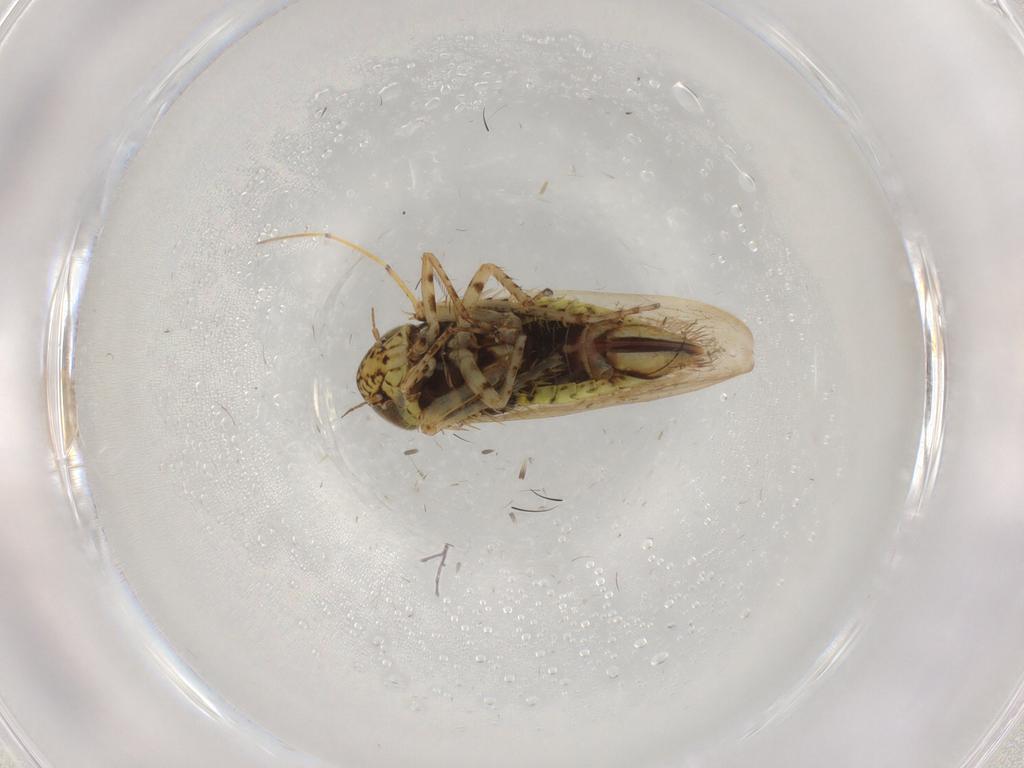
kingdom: Animalia
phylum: Arthropoda
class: Insecta
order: Hemiptera
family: Cicadellidae
